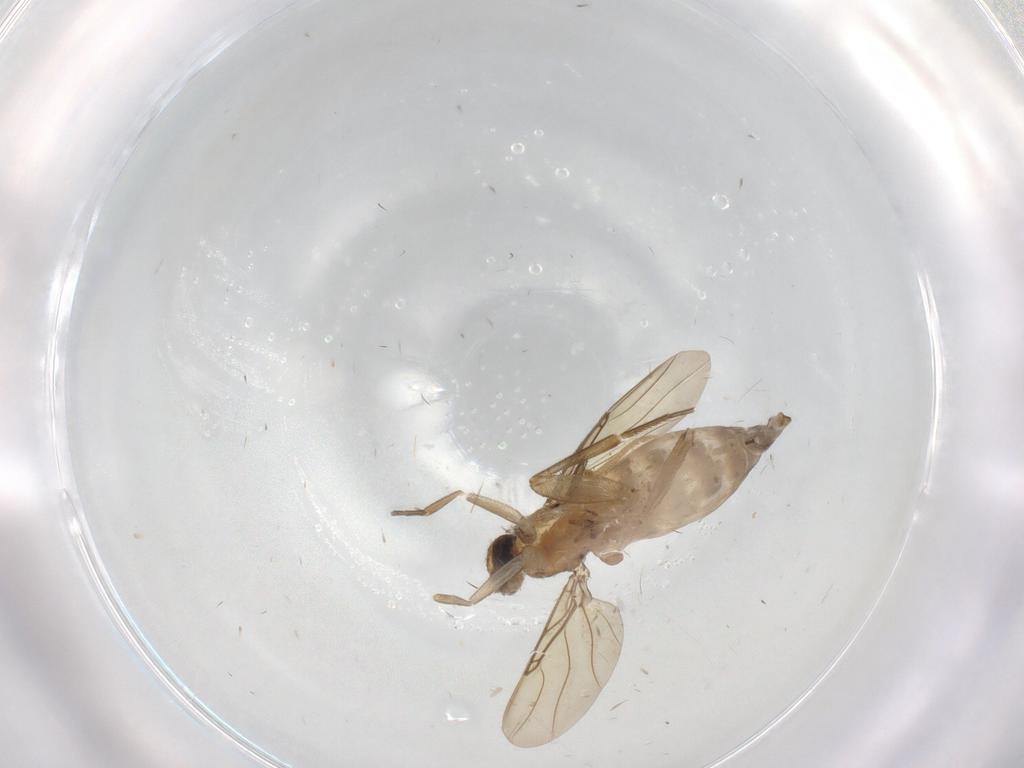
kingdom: Animalia
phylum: Arthropoda
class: Insecta
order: Diptera
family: Phoridae
